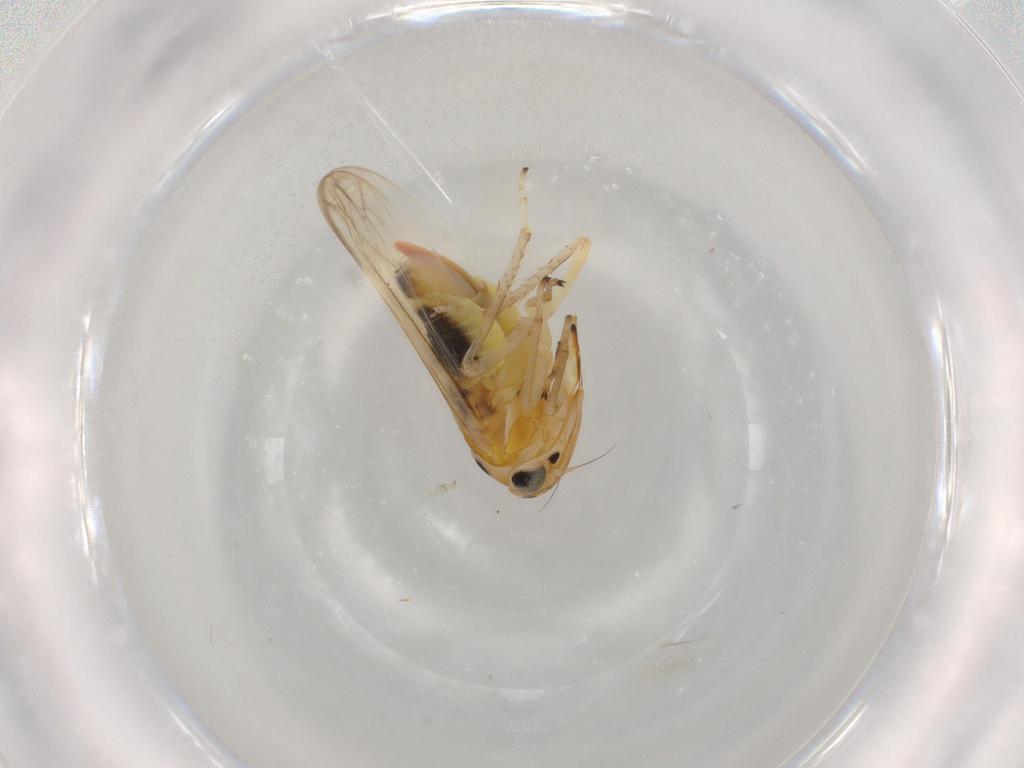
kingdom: Animalia
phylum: Arthropoda
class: Insecta
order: Hemiptera
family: Cicadellidae
